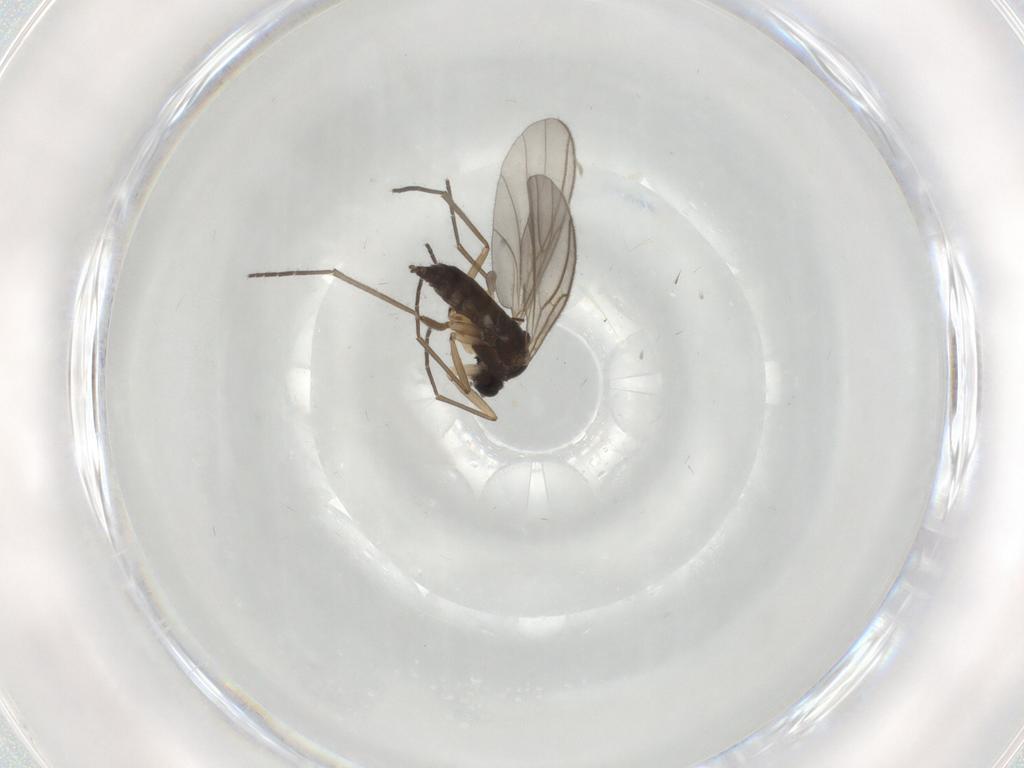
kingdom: Animalia
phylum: Arthropoda
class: Insecta
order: Diptera
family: Sciaridae
